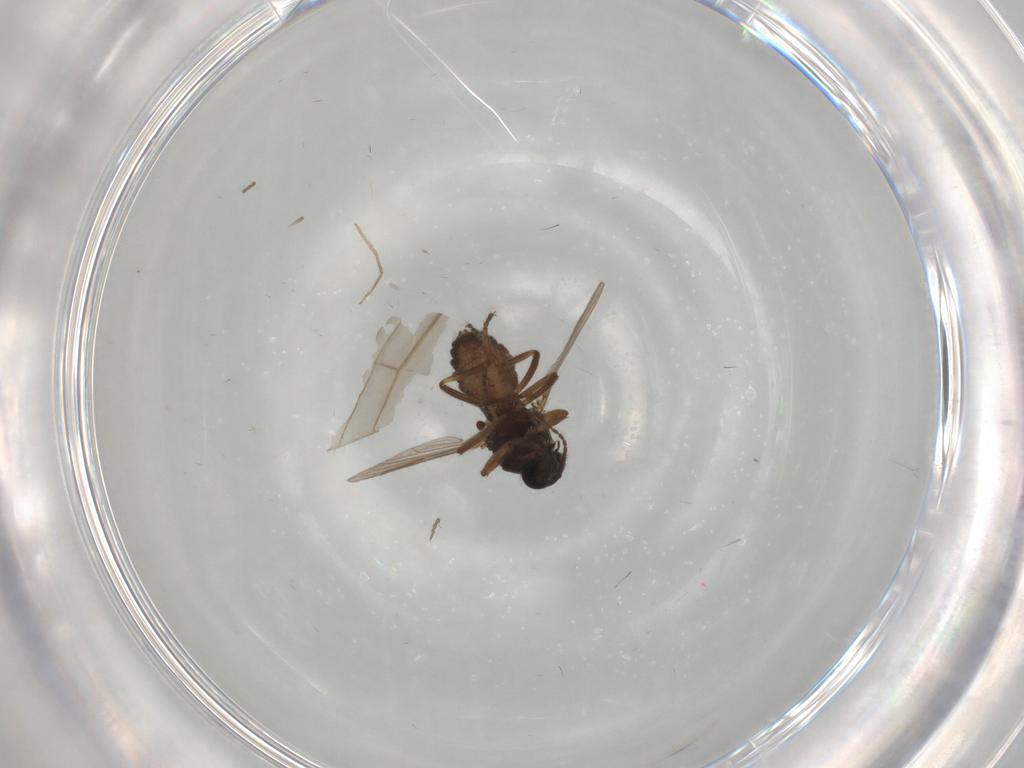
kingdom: Animalia
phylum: Arthropoda
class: Insecta
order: Diptera
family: Ceratopogonidae
